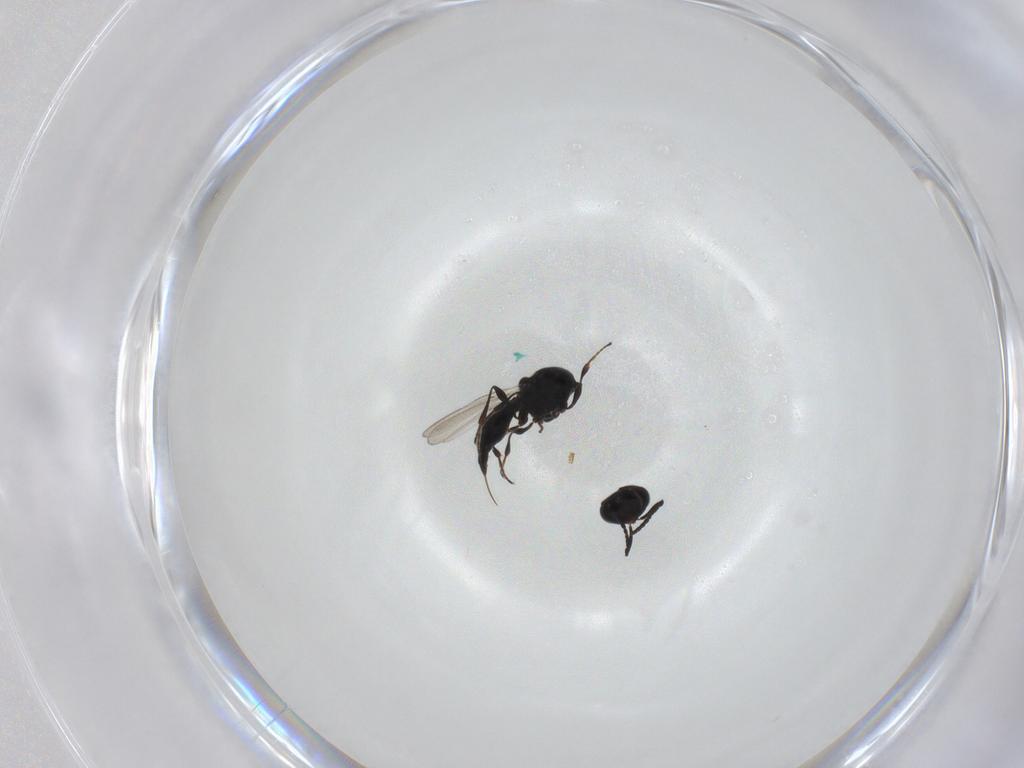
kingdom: Animalia
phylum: Arthropoda
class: Insecta
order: Diptera
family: Mythicomyiidae
